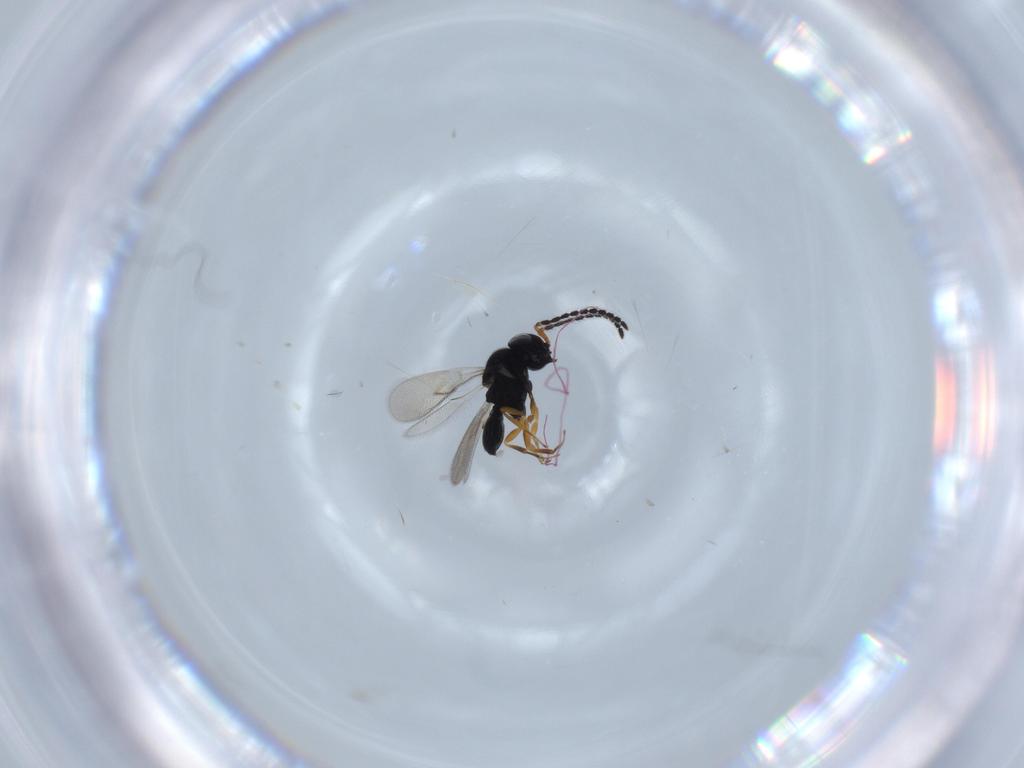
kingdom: Animalia
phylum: Arthropoda
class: Insecta
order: Hymenoptera
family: Scelionidae
